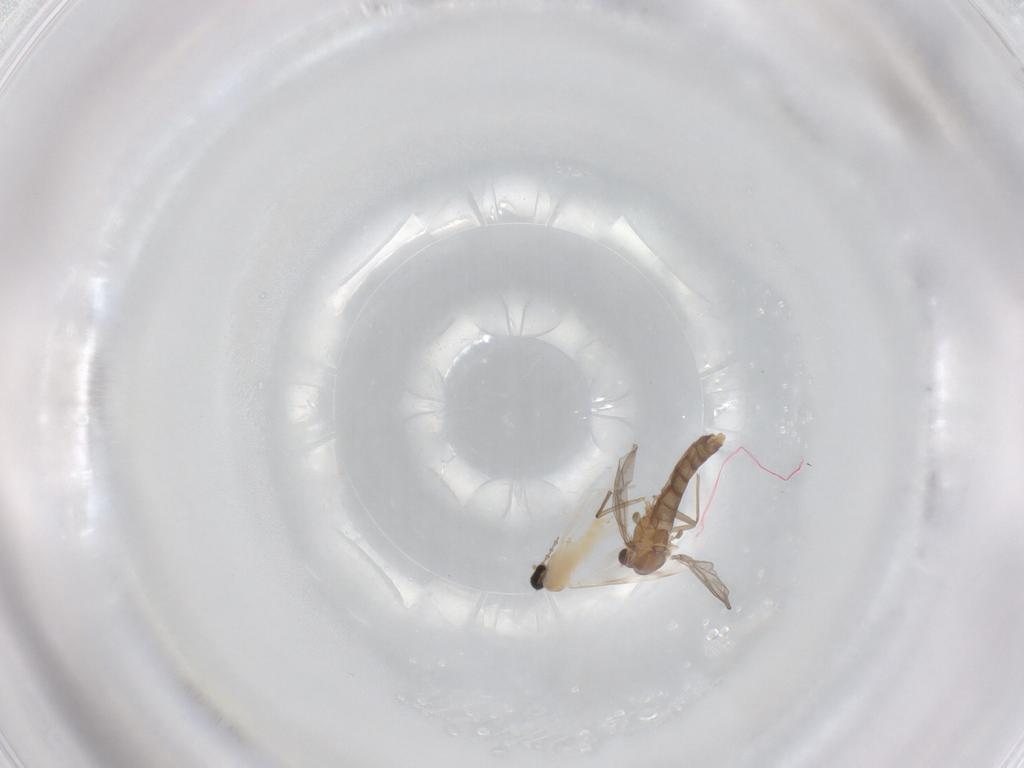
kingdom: Animalia
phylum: Arthropoda
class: Insecta
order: Diptera
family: Chironomidae
